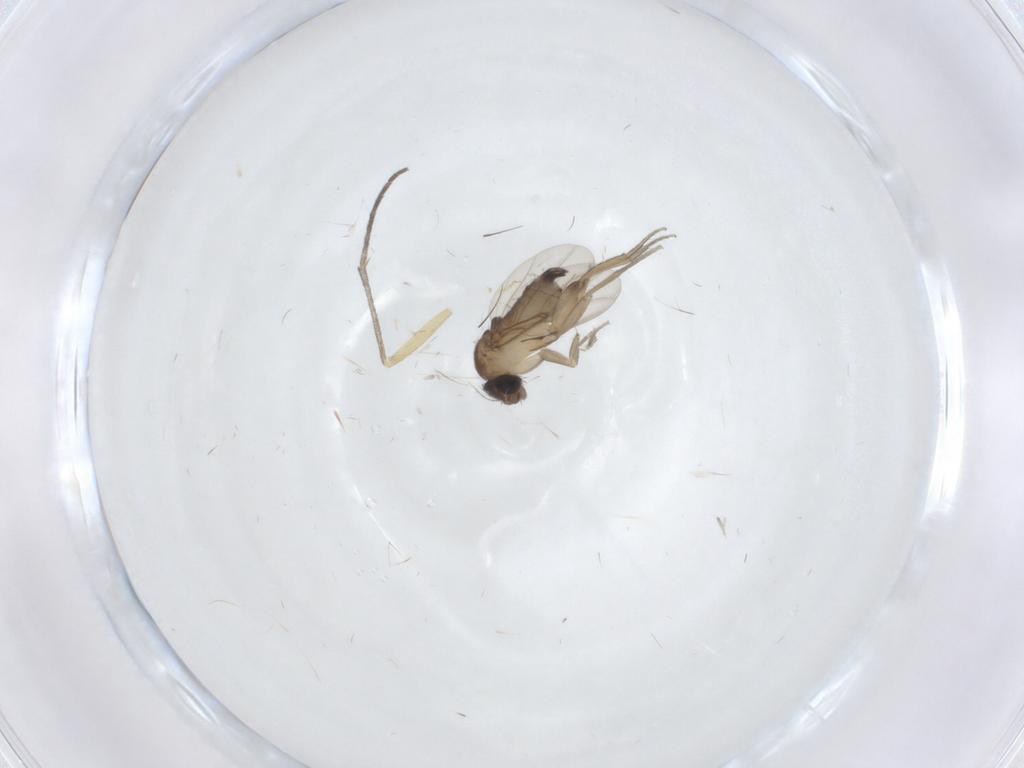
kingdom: Animalia
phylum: Arthropoda
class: Insecta
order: Diptera
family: Sciaridae
